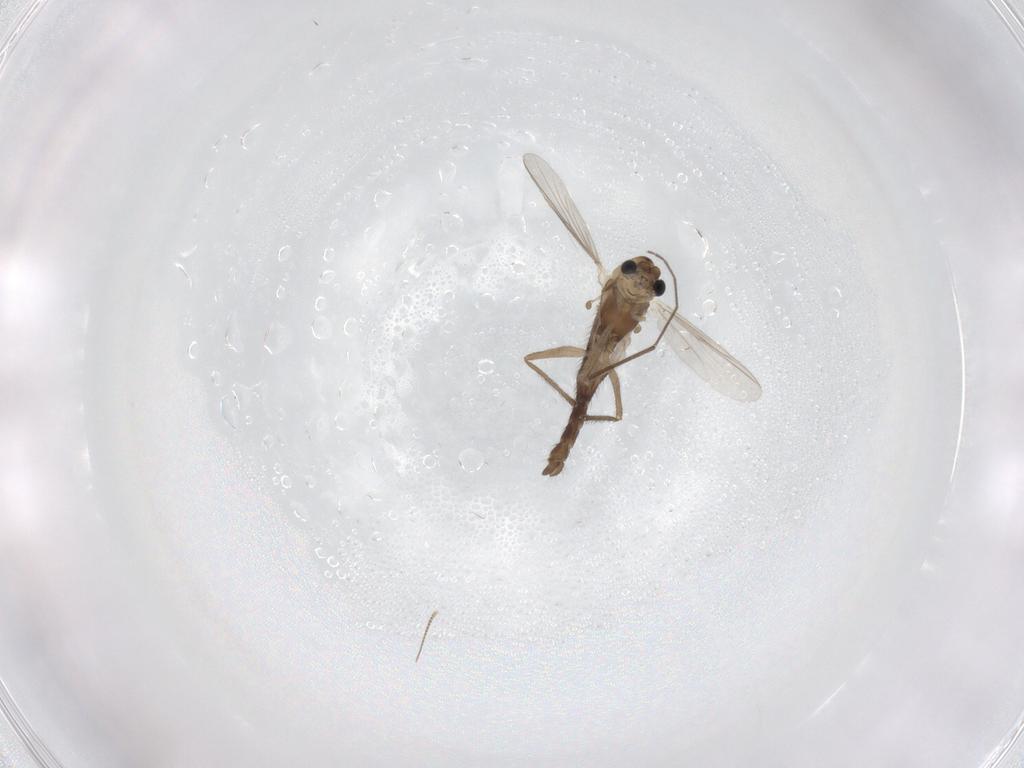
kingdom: Animalia
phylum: Arthropoda
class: Insecta
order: Diptera
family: Chironomidae
